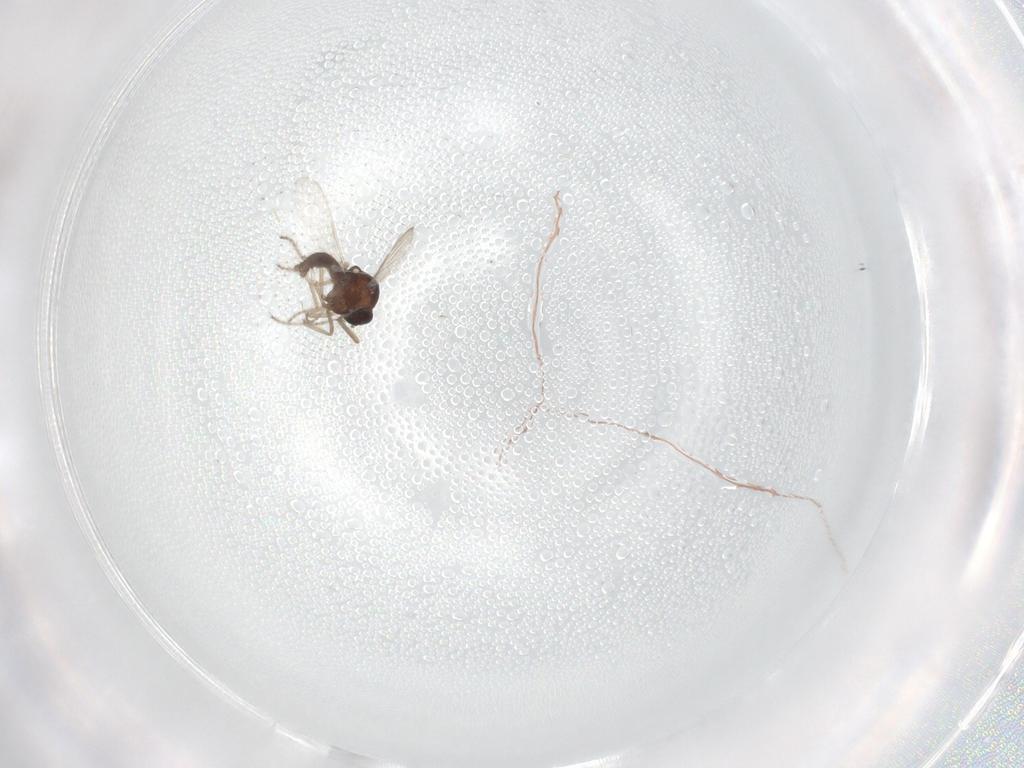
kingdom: Animalia
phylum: Arthropoda
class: Insecta
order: Diptera
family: Ceratopogonidae
